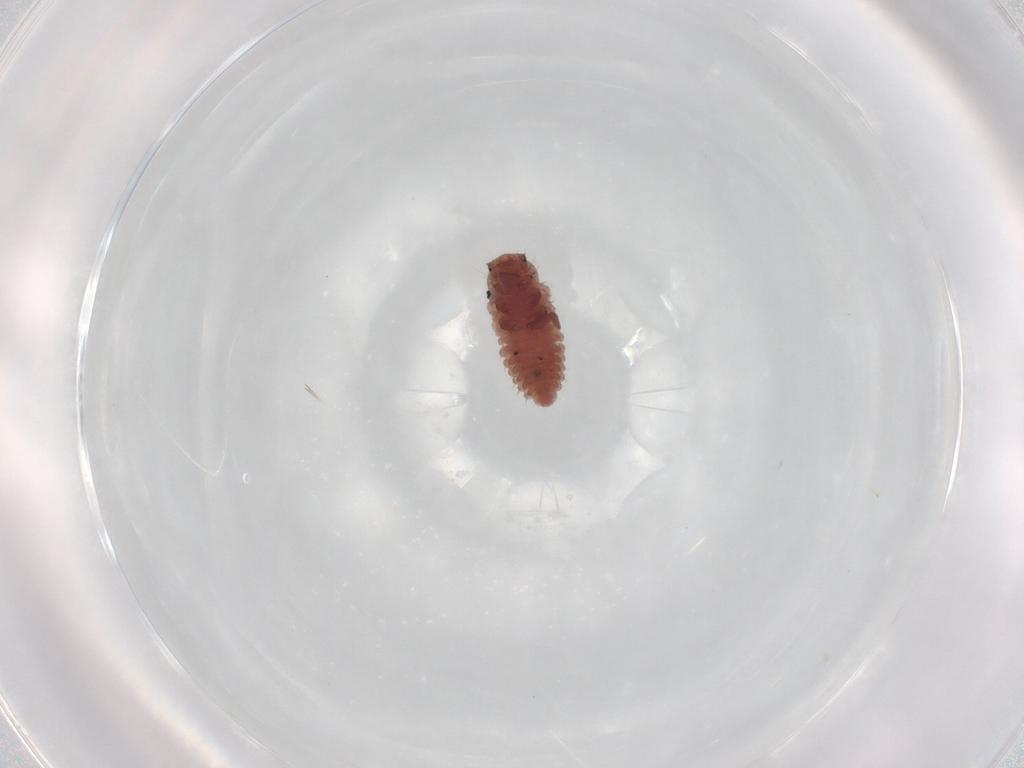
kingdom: Animalia
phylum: Arthropoda
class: Insecta
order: Coleoptera
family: Coccinellidae
